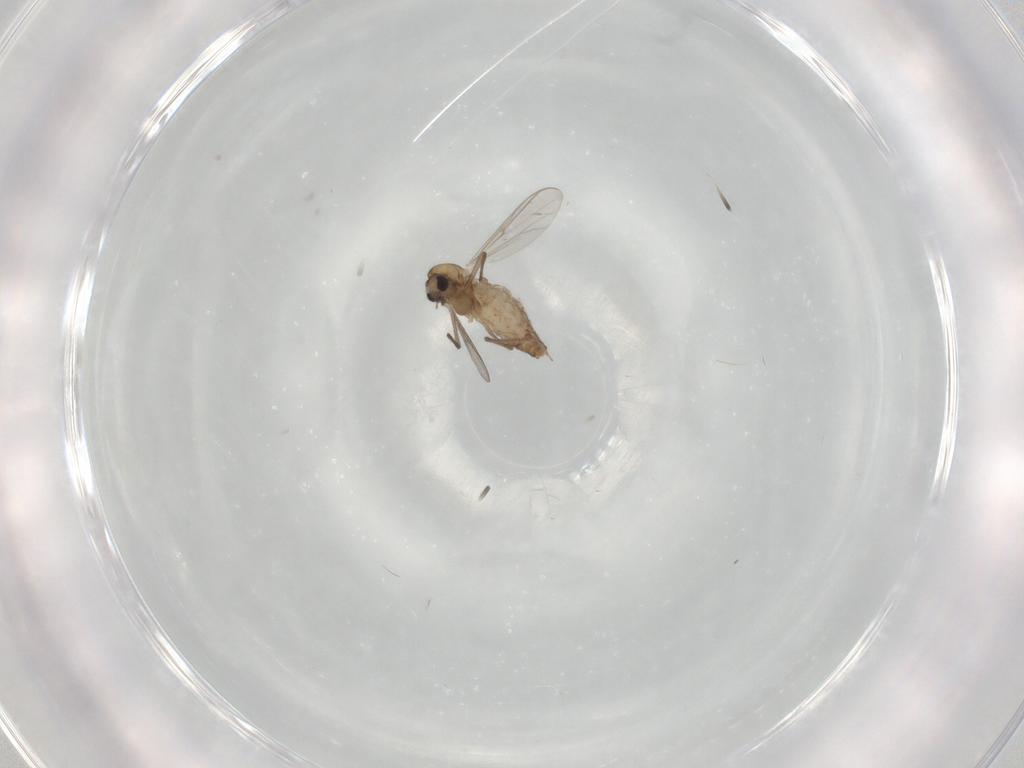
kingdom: Animalia
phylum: Arthropoda
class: Insecta
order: Diptera
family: Chironomidae
